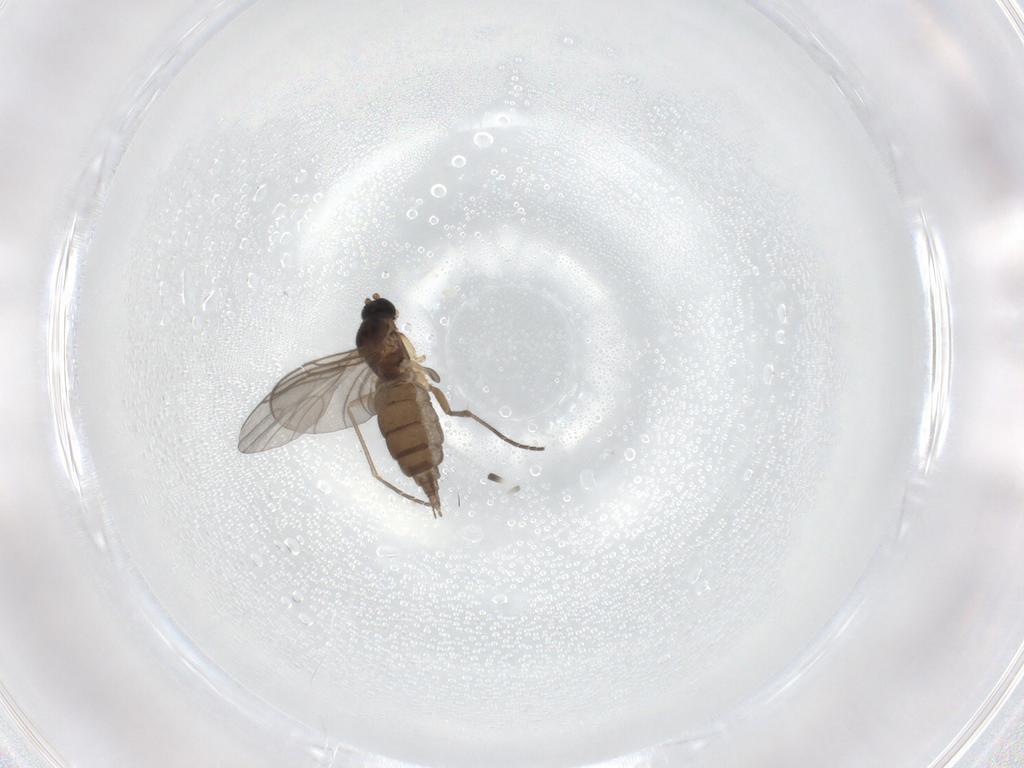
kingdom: Animalia
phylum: Arthropoda
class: Insecta
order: Diptera
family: Sciaridae
